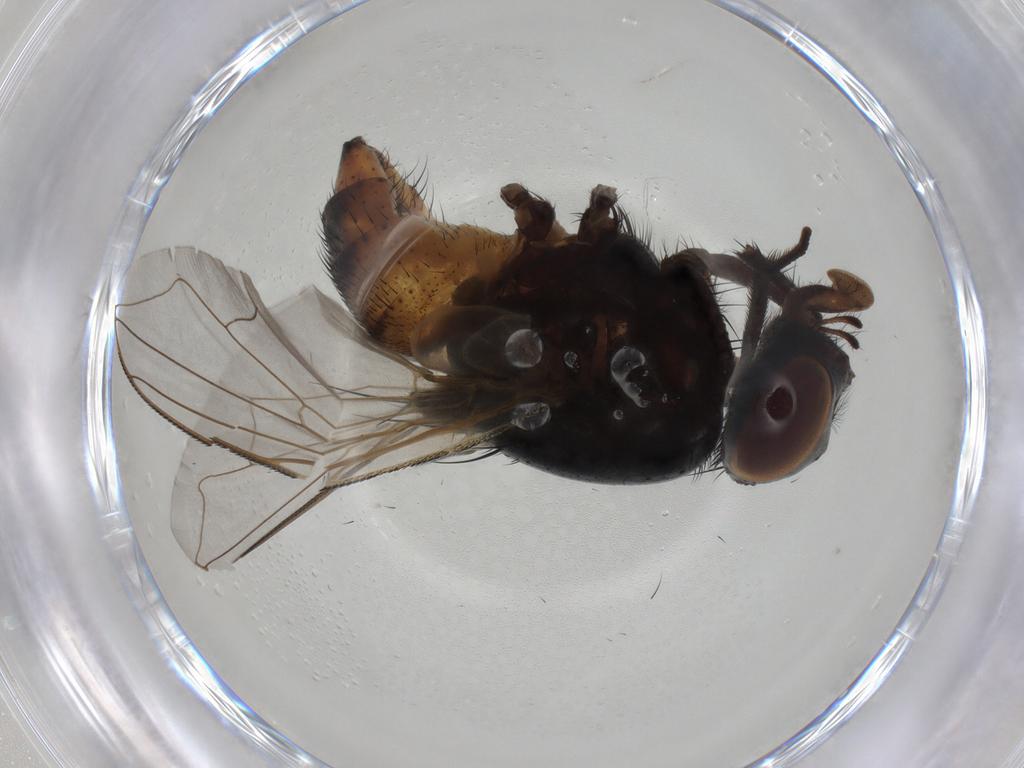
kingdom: Animalia
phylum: Arthropoda
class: Insecta
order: Diptera
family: Muscidae
